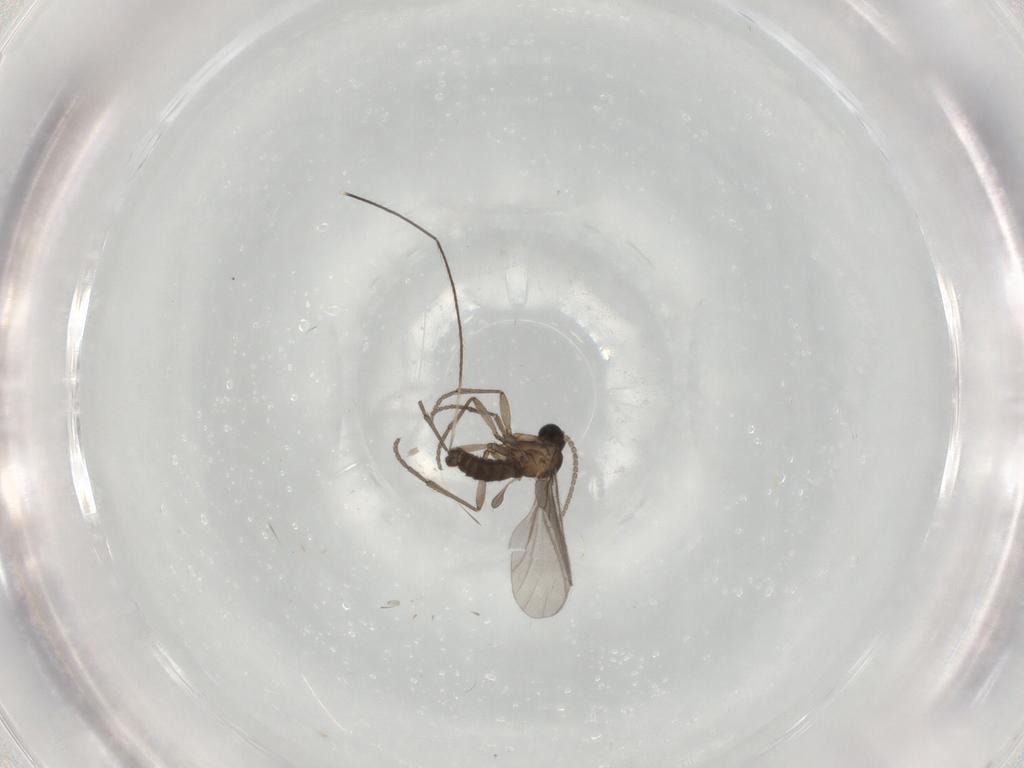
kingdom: Animalia
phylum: Arthropoda
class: Insecta
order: Diptera
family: Sciaridae
